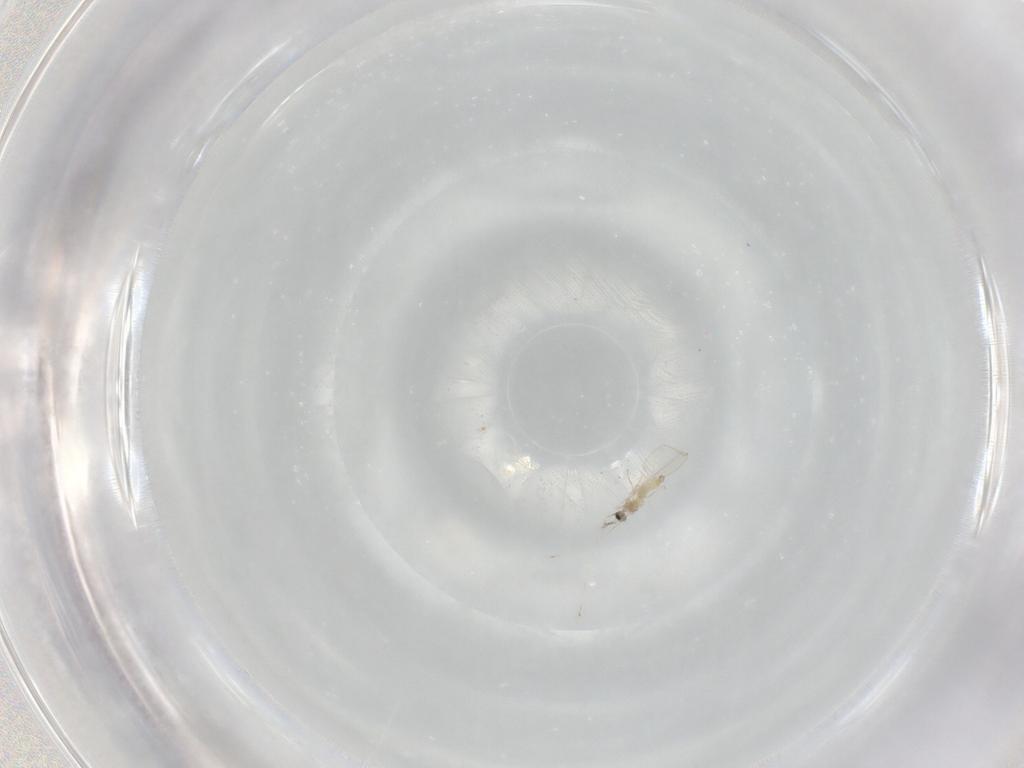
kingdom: Animalia
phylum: Arthropoda
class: Insecta
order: Diptera
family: Cecidomyiidae
